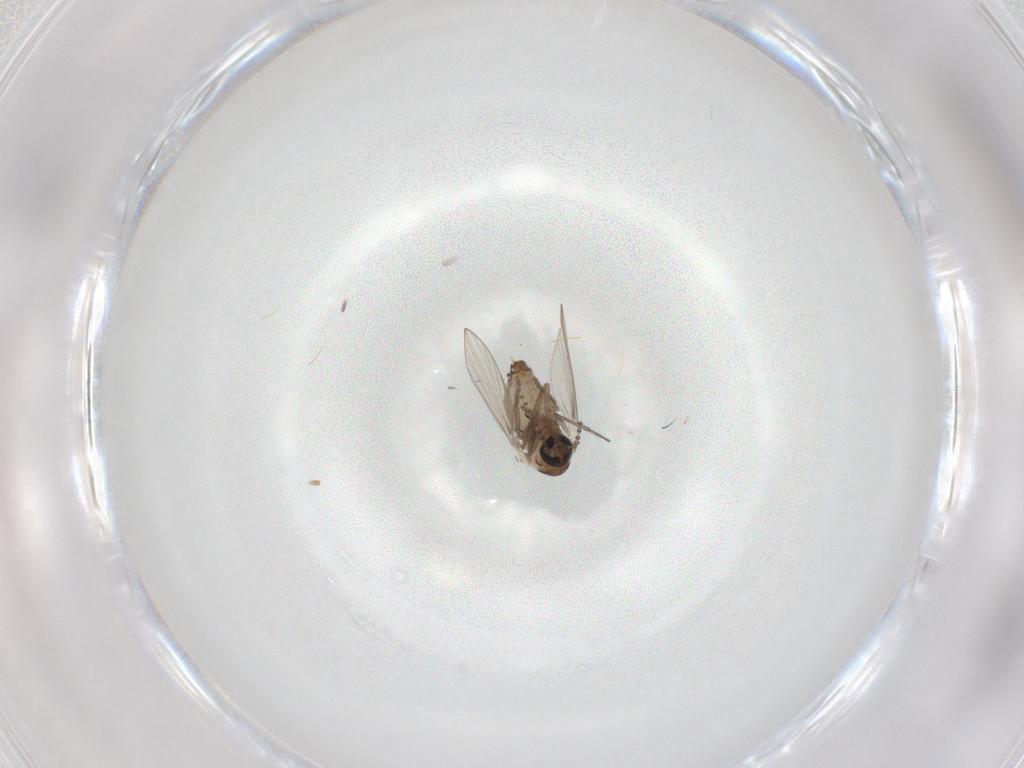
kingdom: Animalia
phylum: Arthropoda
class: Insecta
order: Diptera
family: Psychodidae
